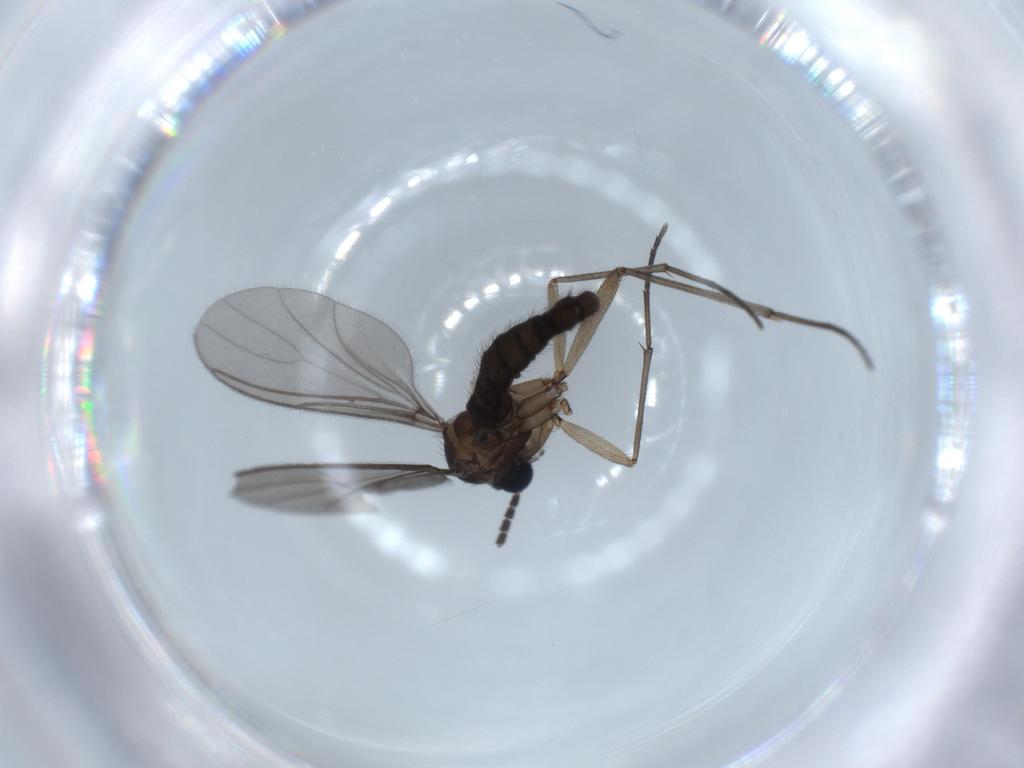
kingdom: Animalia
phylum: Arthropoda
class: Insecta
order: Diptera
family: Sciaridae
